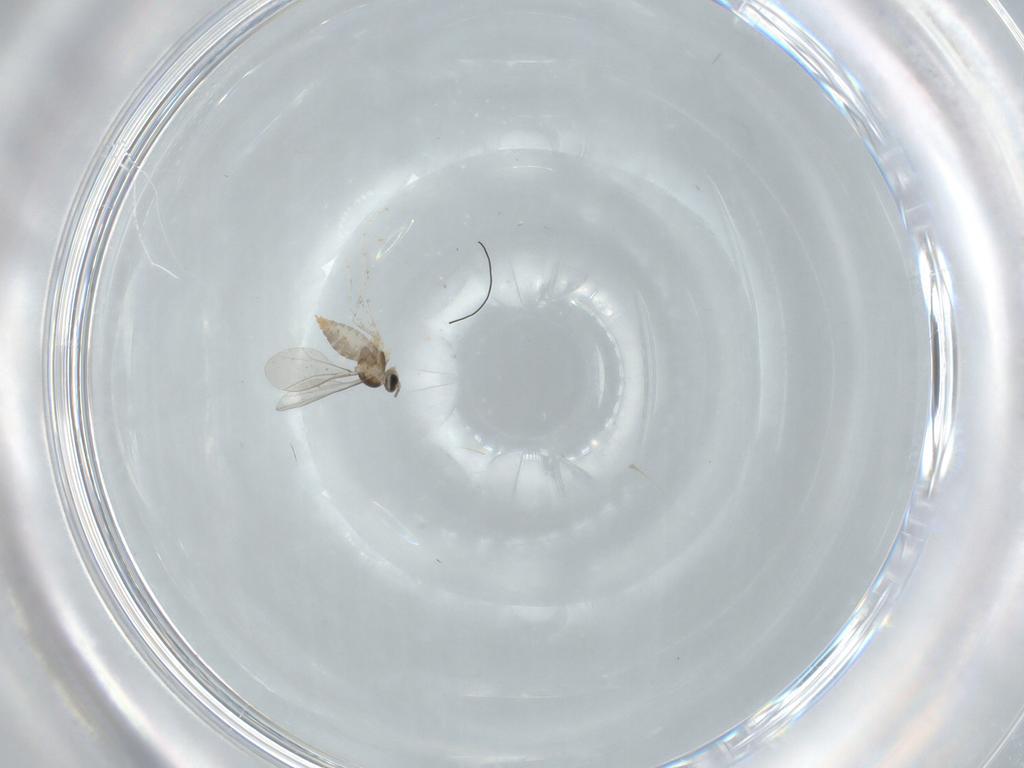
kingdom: Animalia
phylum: Arthropoda
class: Insecta
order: Diptera
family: Cecidomyiidae
